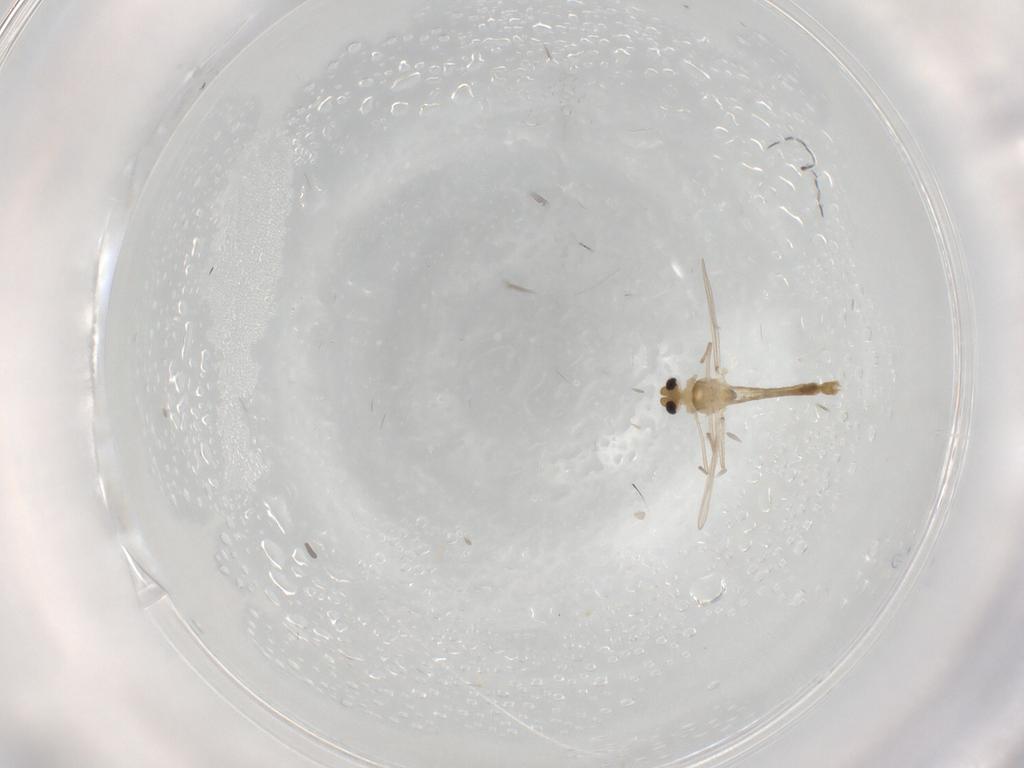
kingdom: Animalia
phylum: Arthropoda
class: Insecta
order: Diptera
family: Chironomidae
